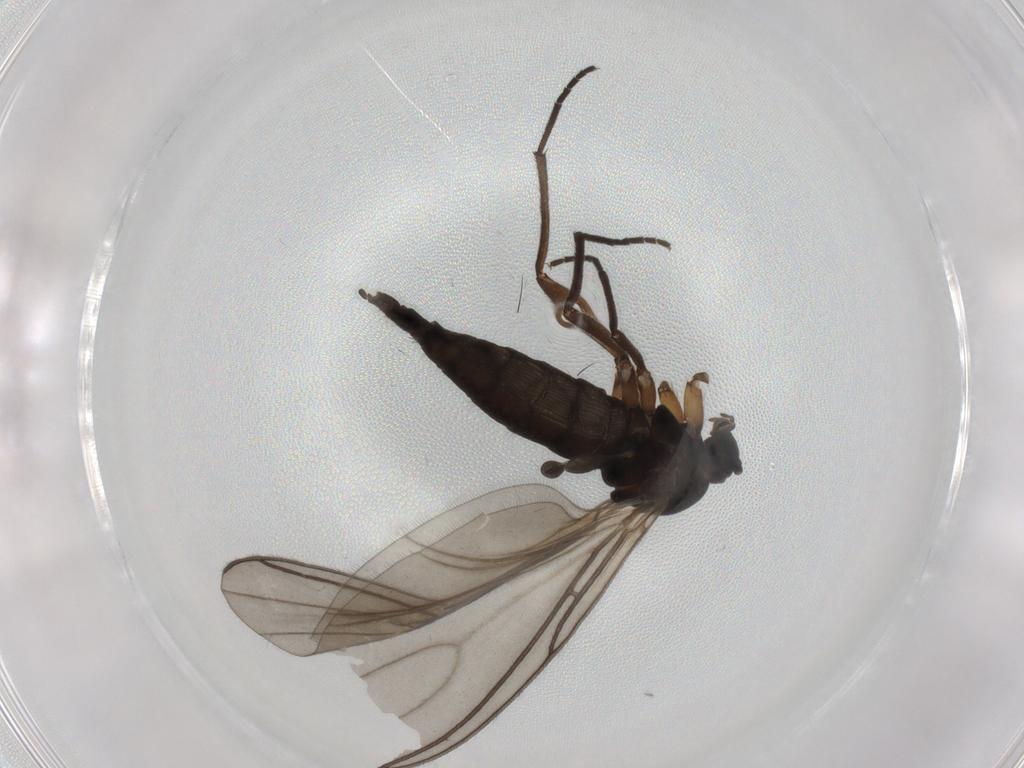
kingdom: Animalia
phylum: Arthropoda
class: Insecta
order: Diptera
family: Sciaridae
